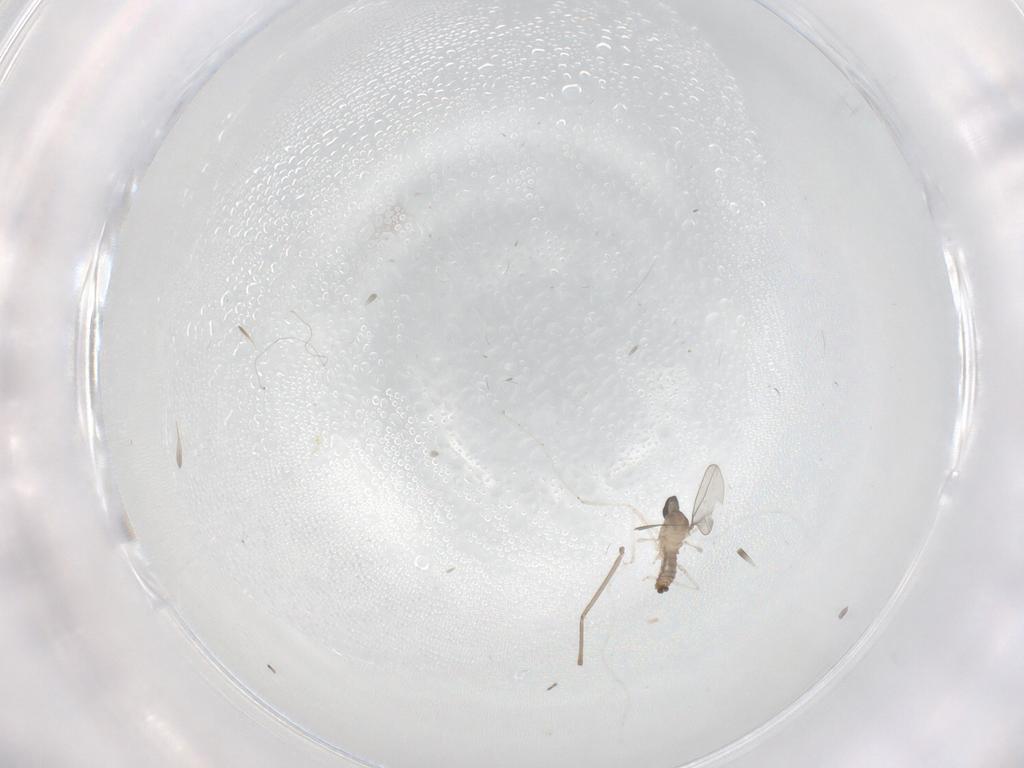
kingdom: Animalia
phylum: Arthropoda
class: Insecta
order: Diptera
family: Cecidomyiidae
